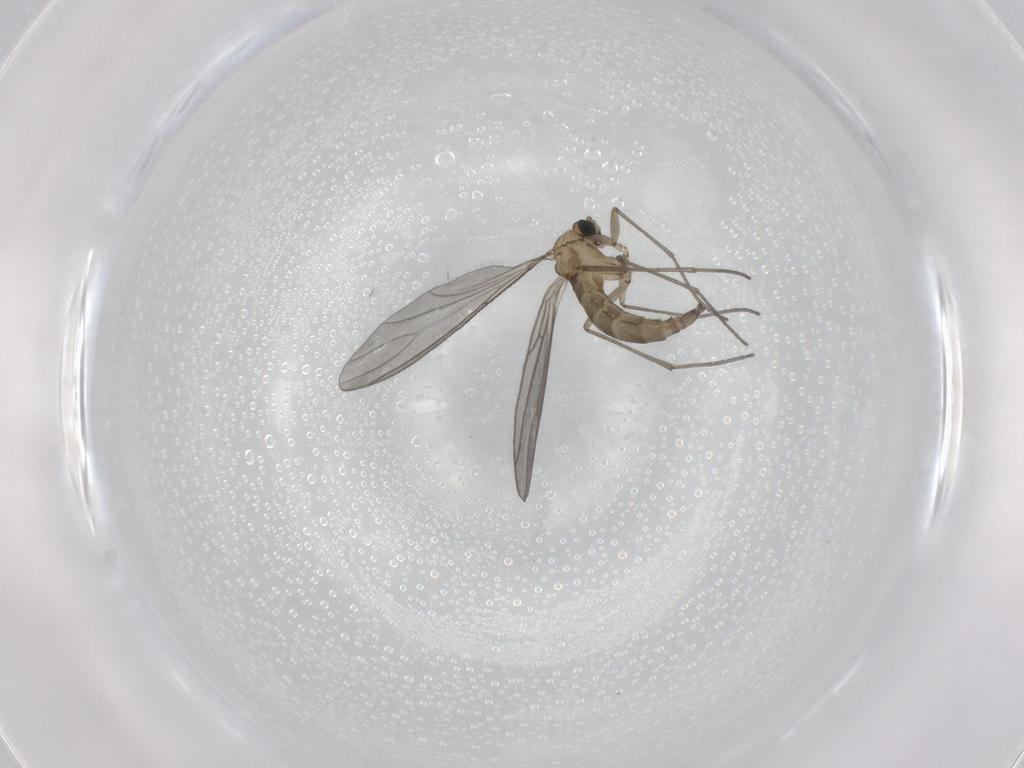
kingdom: Animalia
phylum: Arthropoda
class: Insecta
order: Diptera
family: Sciaridae
